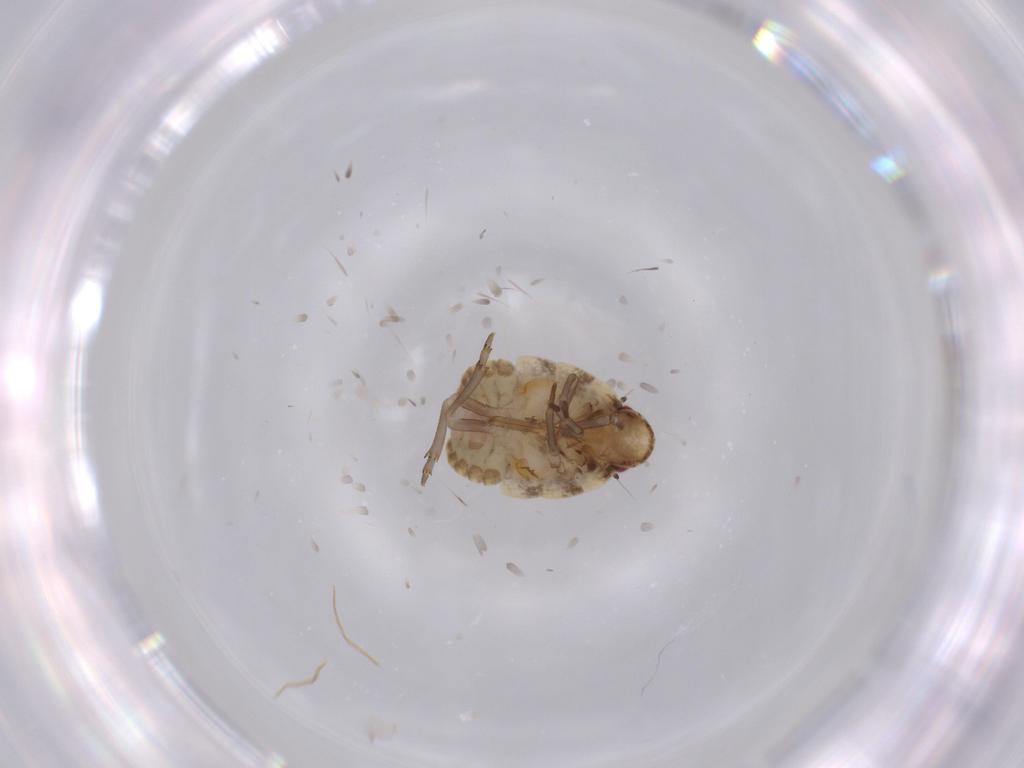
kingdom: Animalia
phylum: Arthropoda
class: Insecta
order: Hemiptera
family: Flatidae
